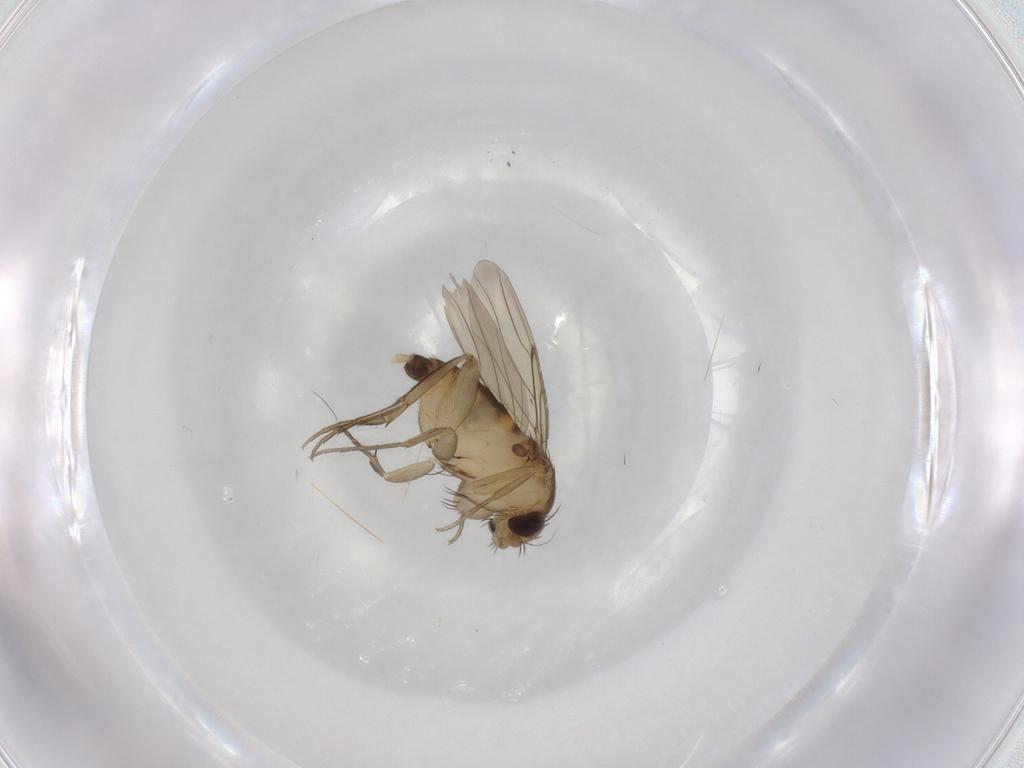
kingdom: Animalia
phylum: Arthropoda
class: Insecta
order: Diptera
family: Phoridae
